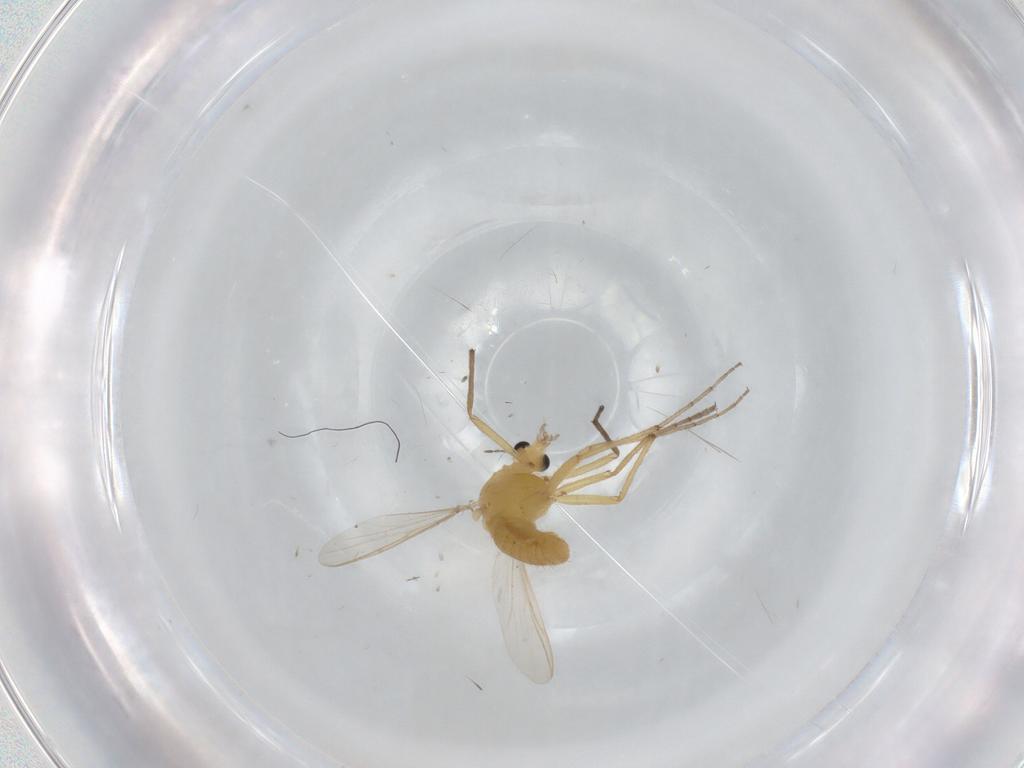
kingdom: Animalia
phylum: Arthropoda
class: Insecta
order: Diptera
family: Chironomidae
